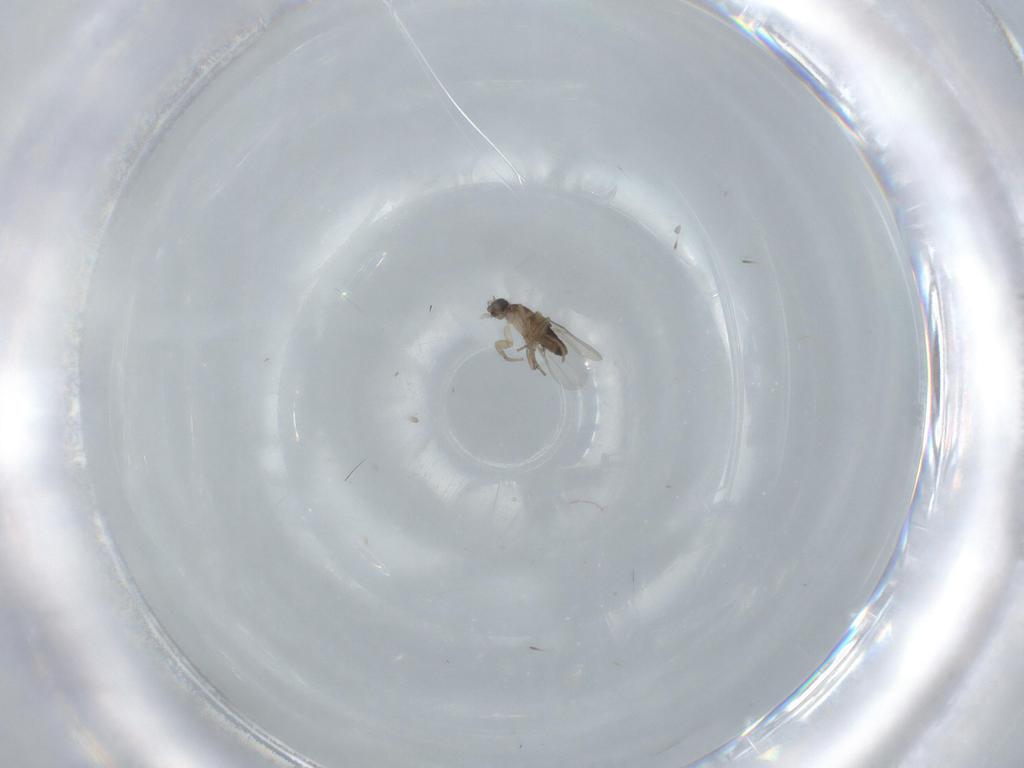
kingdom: Animalia
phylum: Arthropoda
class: Insecta
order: Diptera
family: Phoridae
